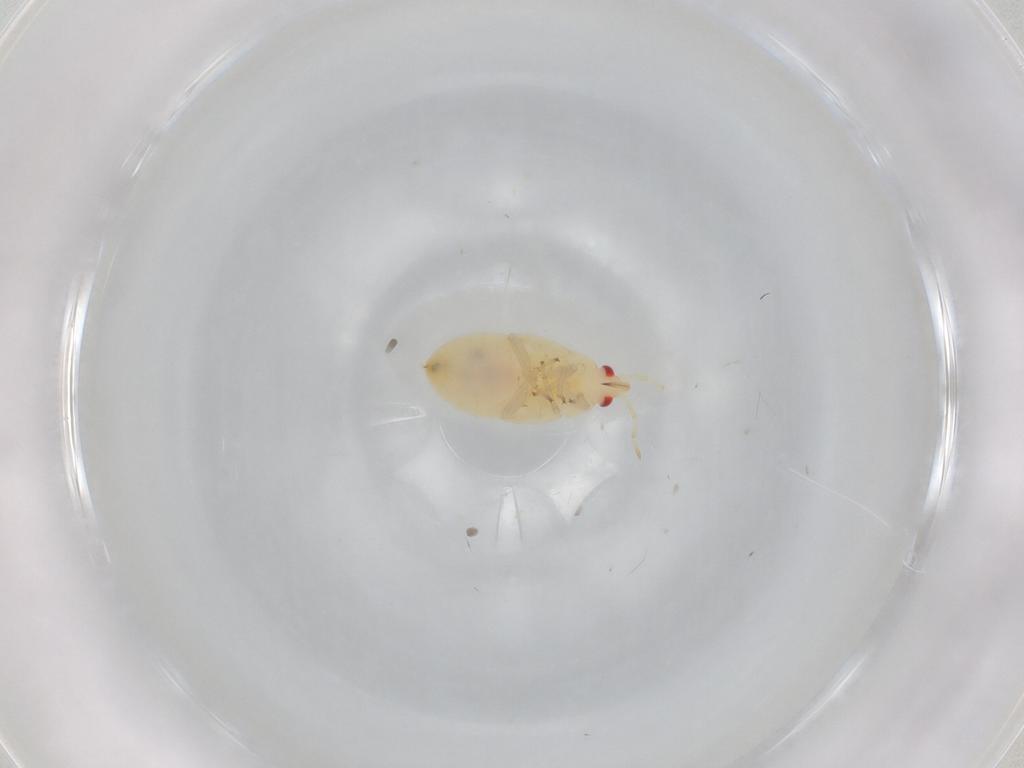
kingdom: Animalia
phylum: Arthropoda
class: Insecta
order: Hemiptera
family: Anthocoridae
